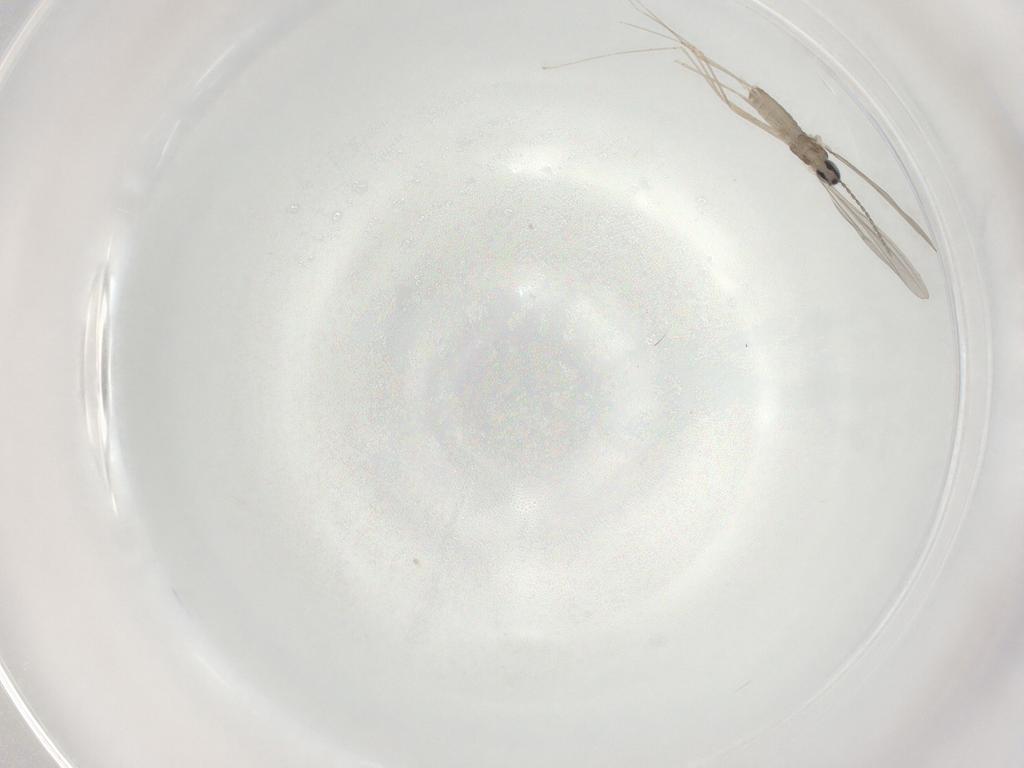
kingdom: Animalia
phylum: Arthropoda
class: Insecta
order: Diptera
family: Cecidomyiidae
